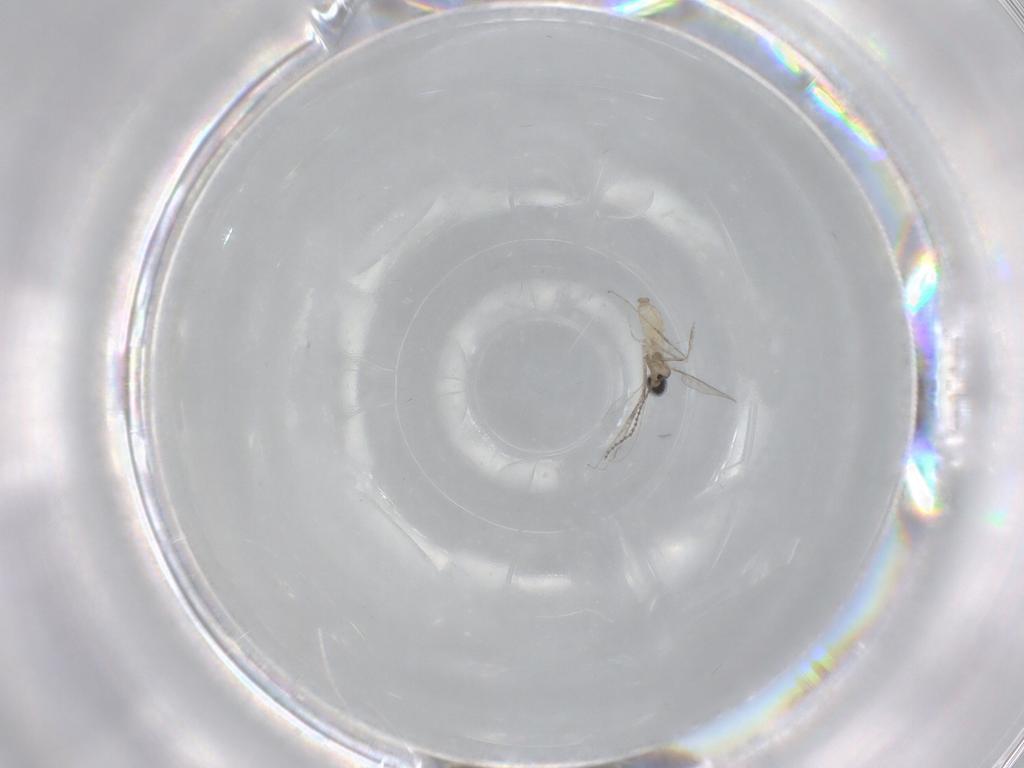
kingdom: Animalia
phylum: Arthropoda
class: Insecta
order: Diptera
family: Cecidomyiidae
